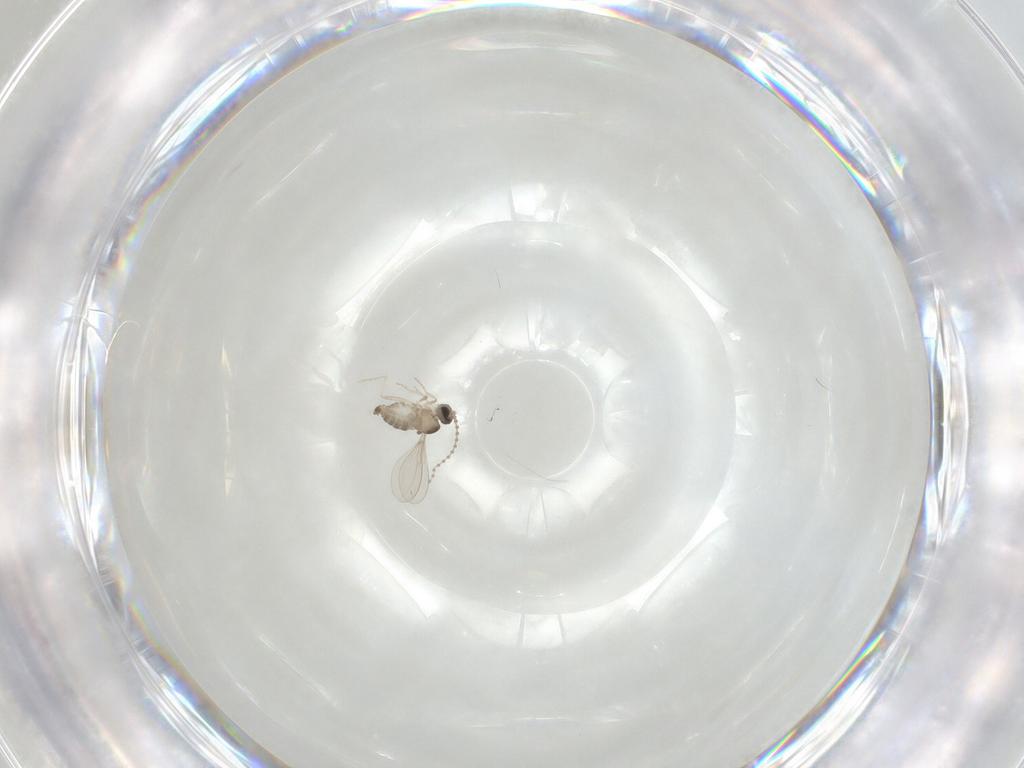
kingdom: Animalia
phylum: Arthropoda
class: Insecta
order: Diptera
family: Cecidomyiidae
